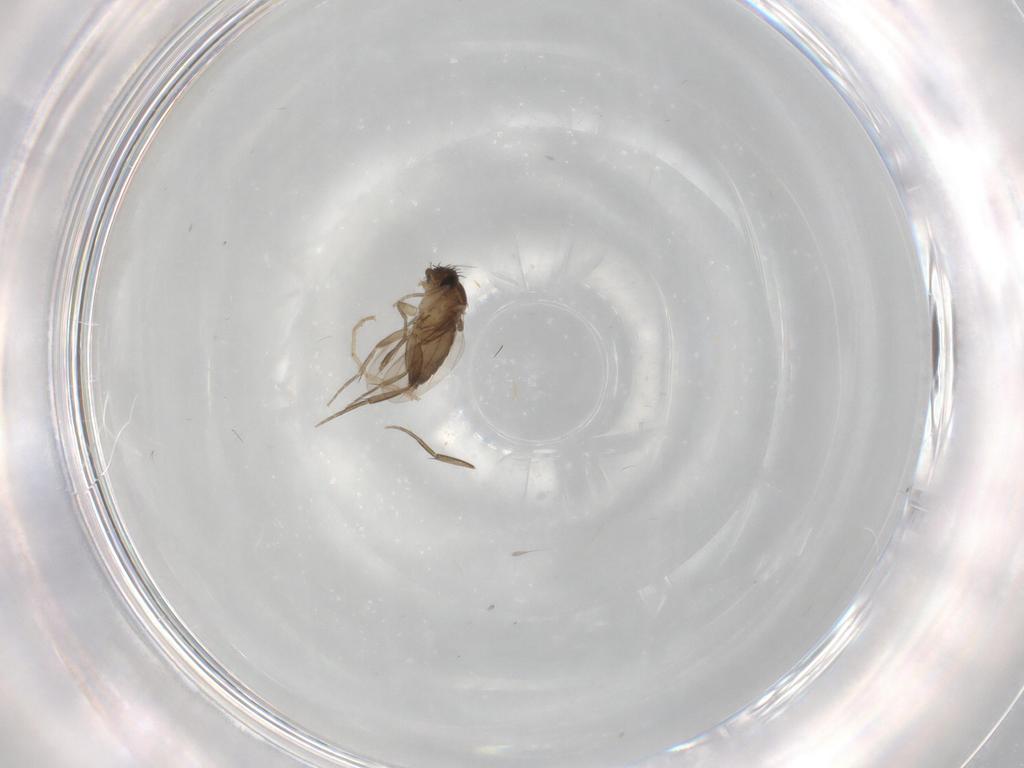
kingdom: Animalia
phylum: Arthropoda
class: Insecta
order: Diptera
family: Phoridae
